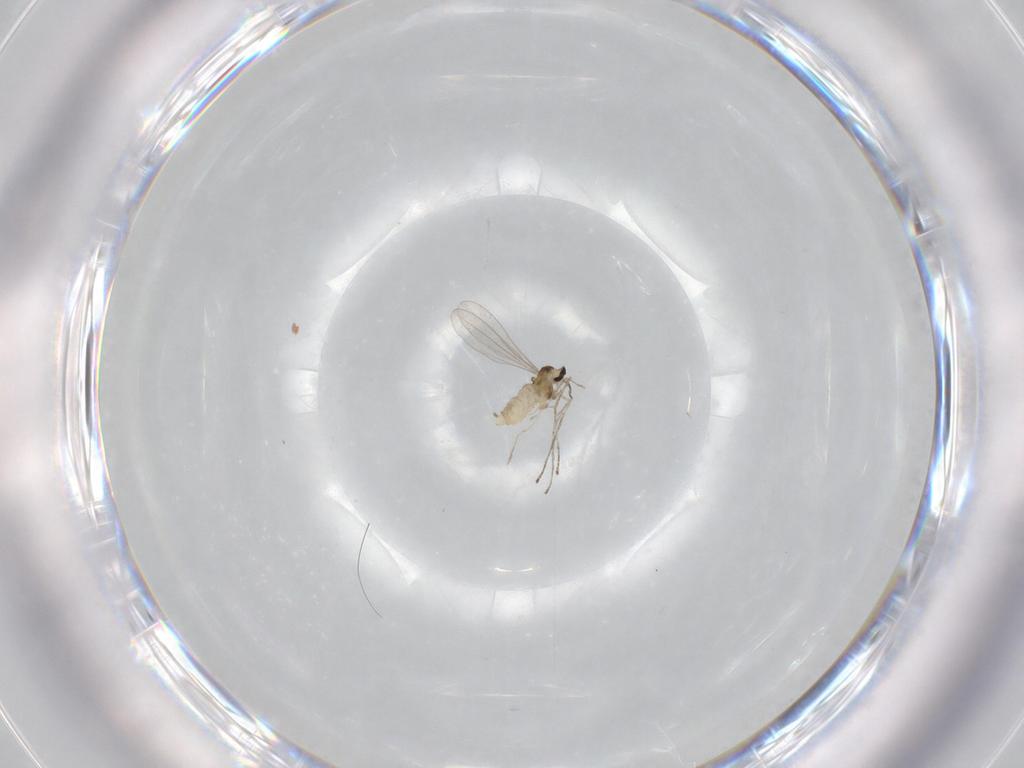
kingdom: Animalia
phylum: Arthropoda
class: Insecta
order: Diptera
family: Cecidomyiidae
